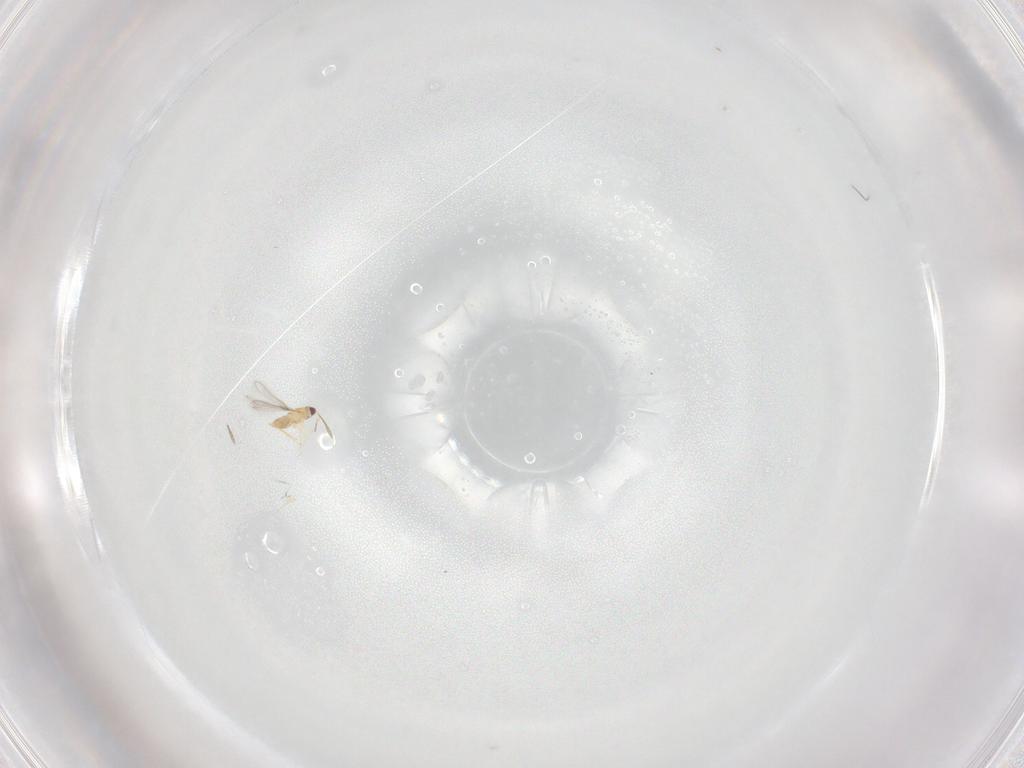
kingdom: Animalia
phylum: Arthropoda
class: Insecta
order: Hymenoptera
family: Mymaridae
